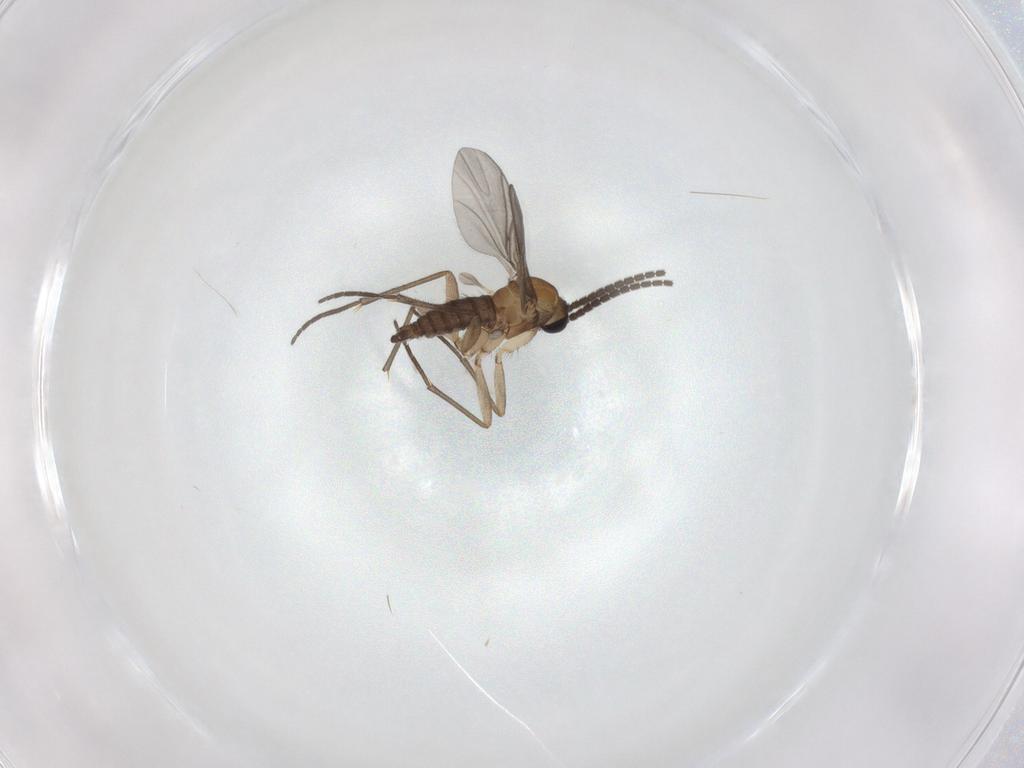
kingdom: Animalia
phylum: Arthropoda
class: Insecta
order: Diptera
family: Sciaridae
